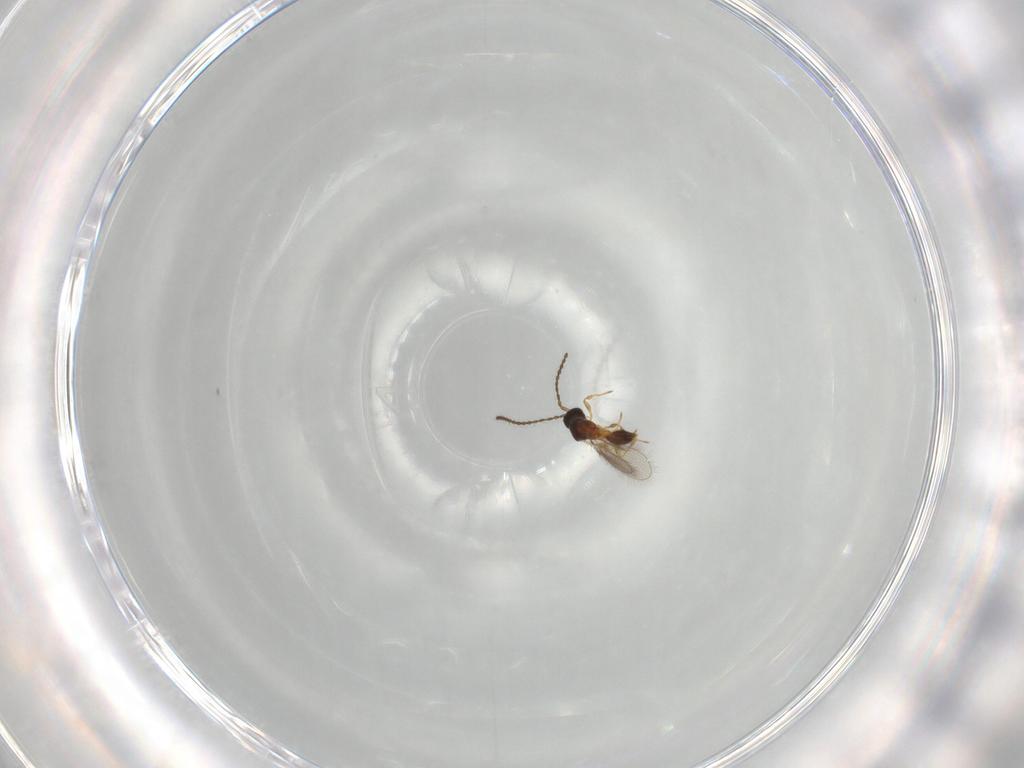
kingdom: Animalia
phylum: Arthropoda
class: Insecta
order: Hymenoptera
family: Diapriidae
